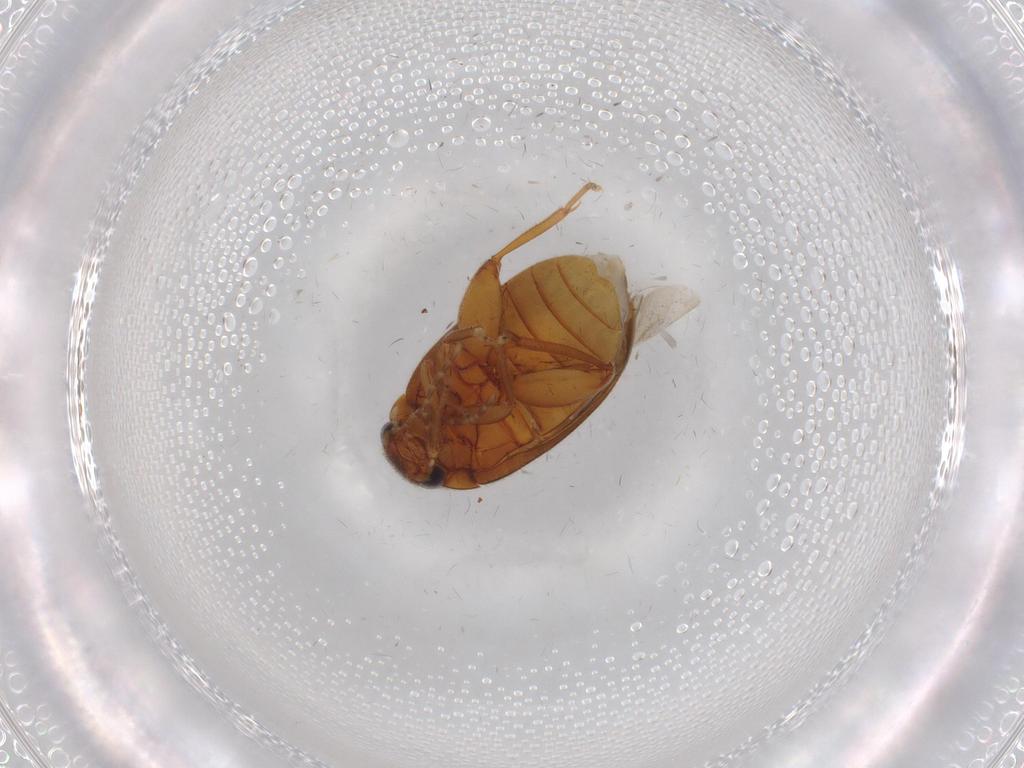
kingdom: Animalia
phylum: Arthropoda
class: Insecta
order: Coleoptera
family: Scirtidae
